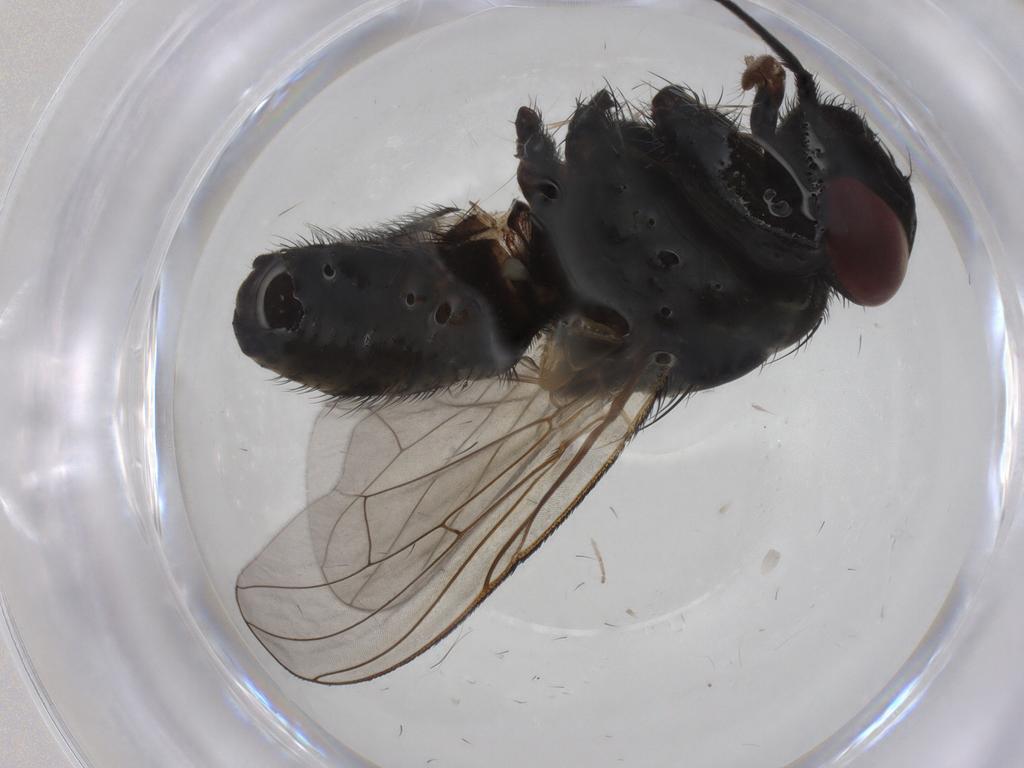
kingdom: Animalia
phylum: Arthropoda
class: Insecta
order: Diptera
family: Muscidae
